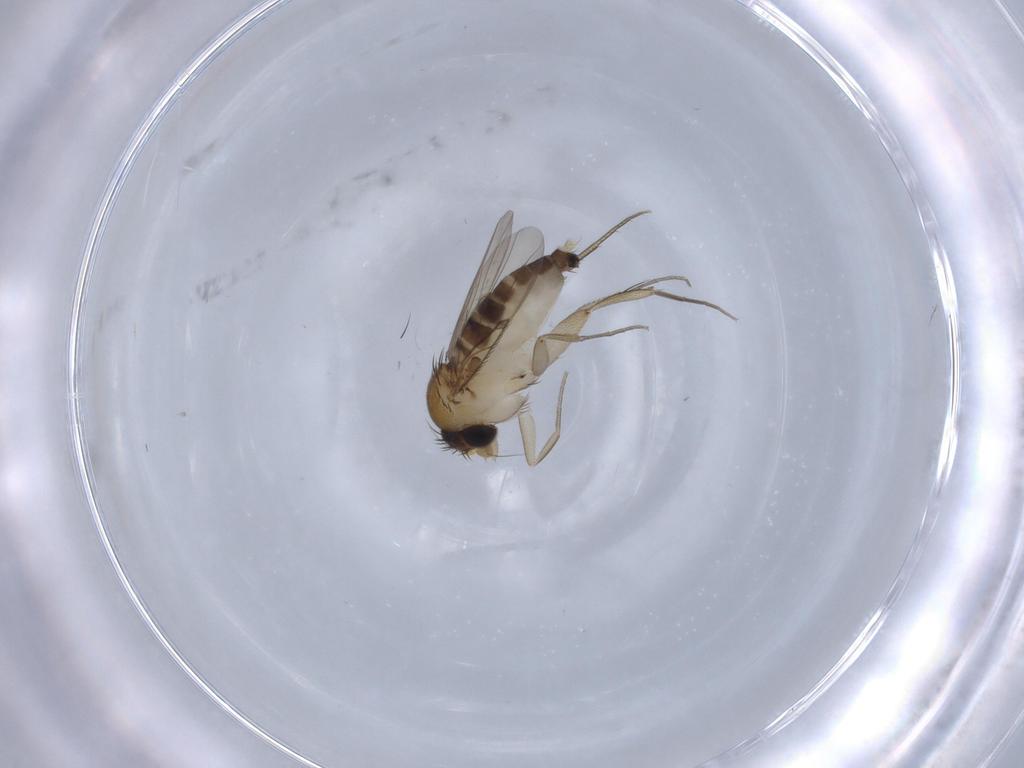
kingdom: Animalia
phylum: Arthropoda
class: Insecta
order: Diptera
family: Phoridae
